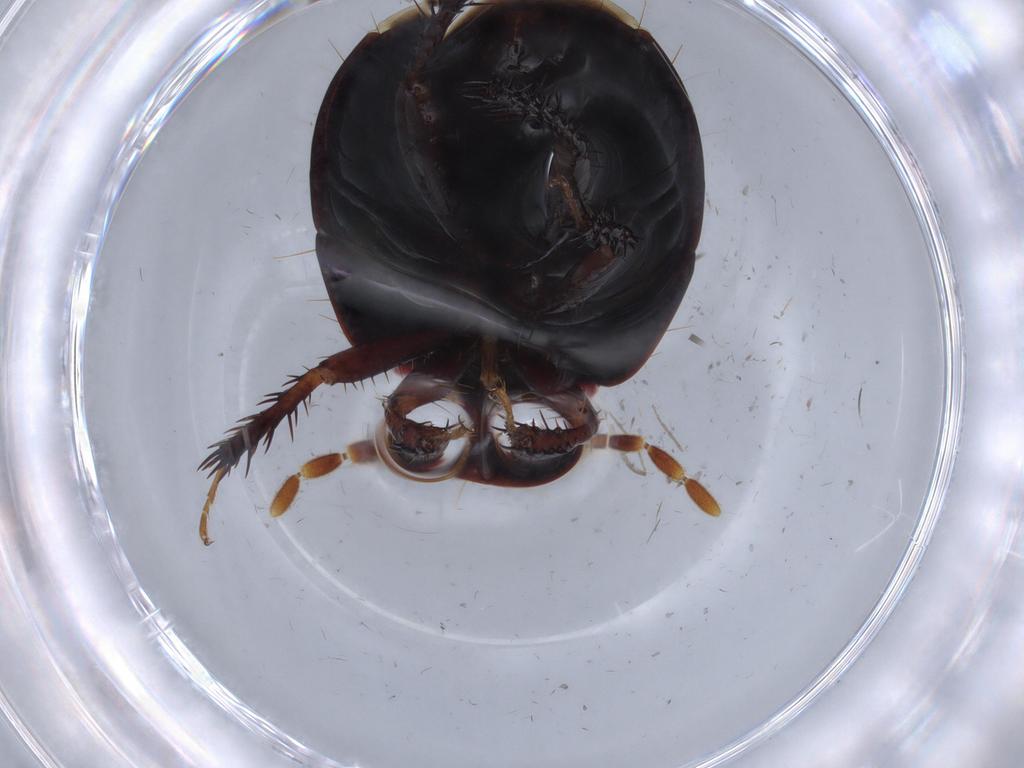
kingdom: Animalia
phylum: Arthropoda
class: Insecta
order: Hemiptera
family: Cydnidae
